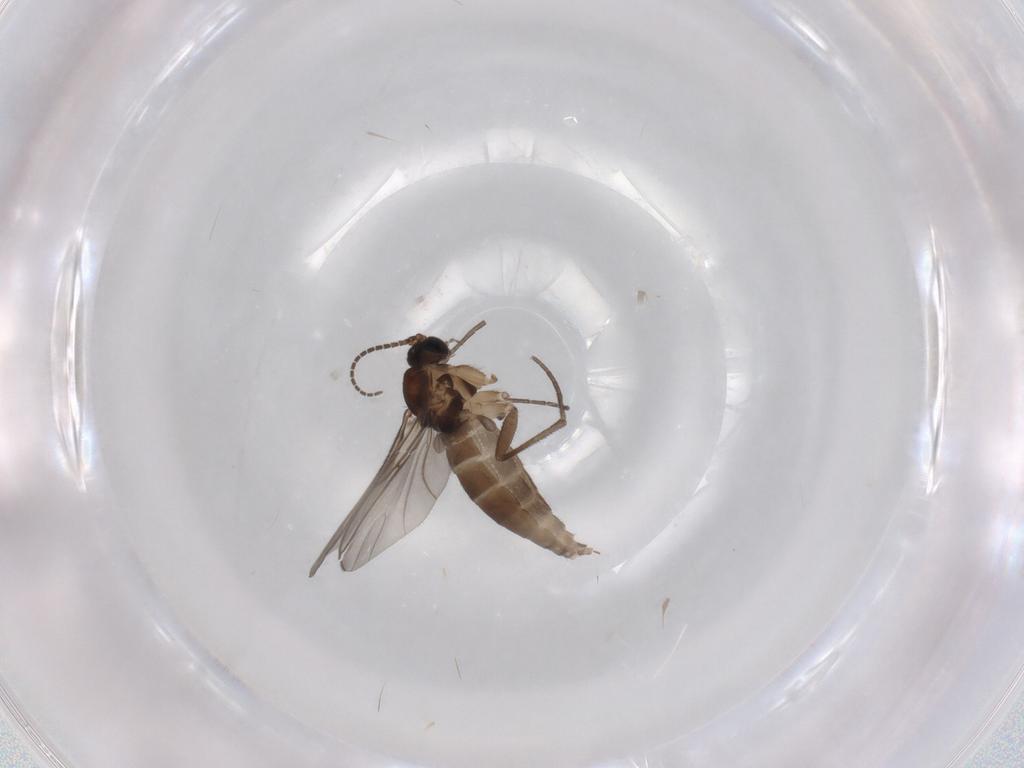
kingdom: Animalia
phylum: Arthropoda
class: Insecta
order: Diptera
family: Sciaridae
